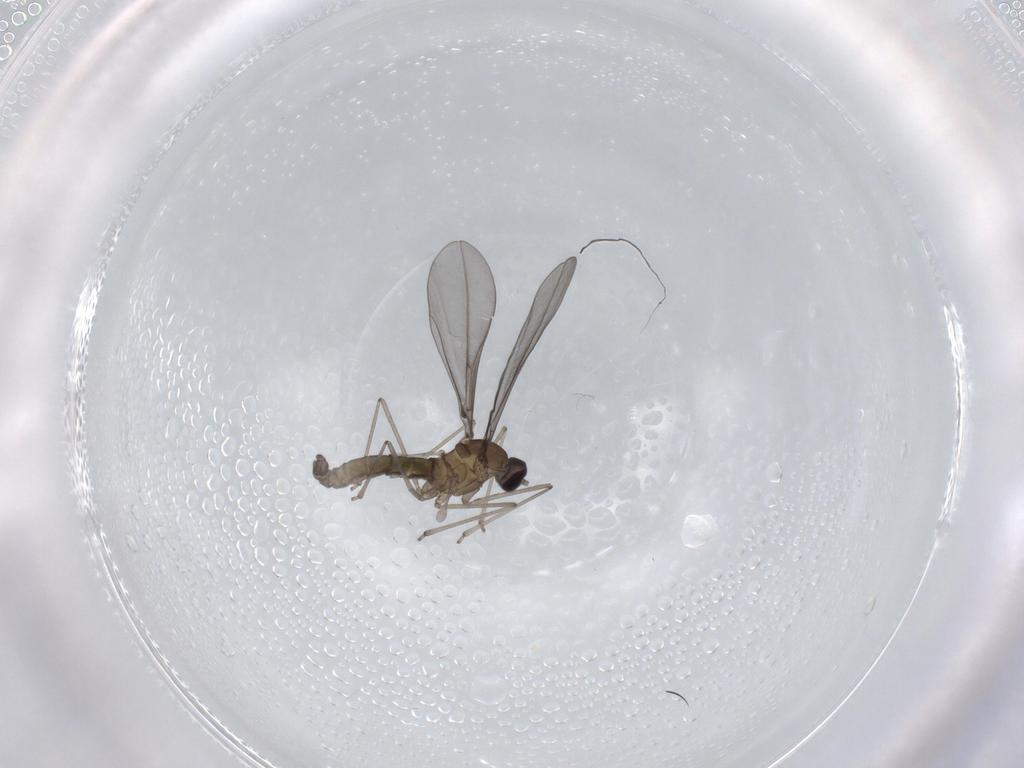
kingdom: Animalia
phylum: Arthropoda
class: Insecta
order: Diptera
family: Cecidomyiidae
